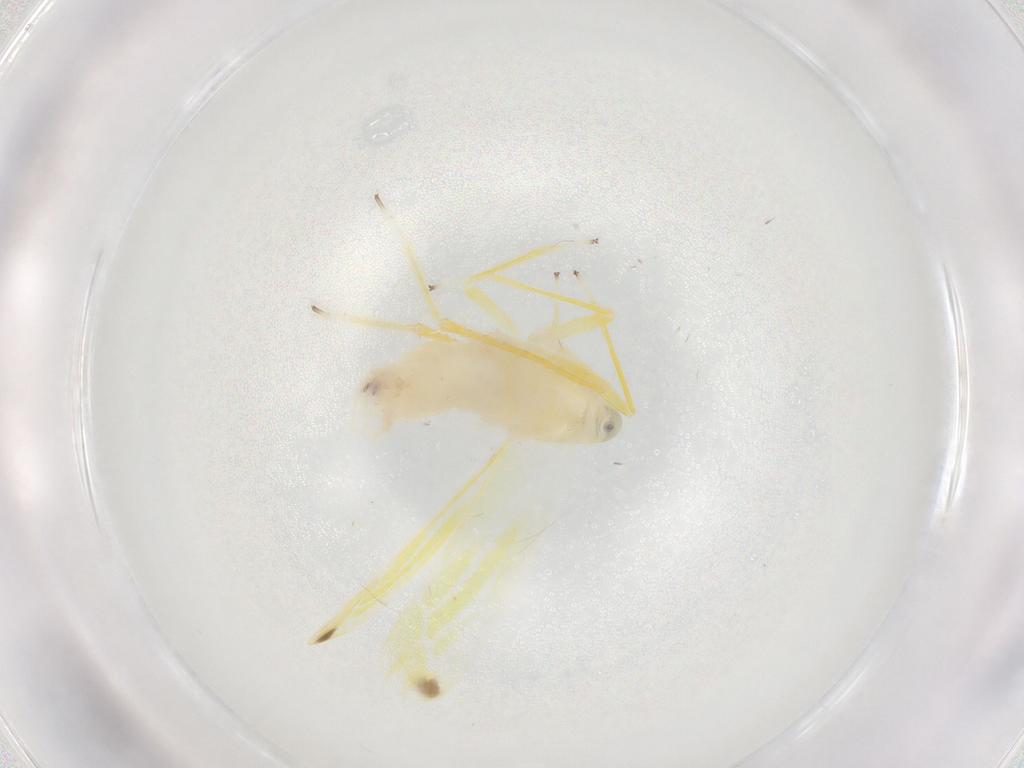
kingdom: Animalia
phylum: Arthropoda
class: Insecta
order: Hemiptera
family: Cicadellidae
